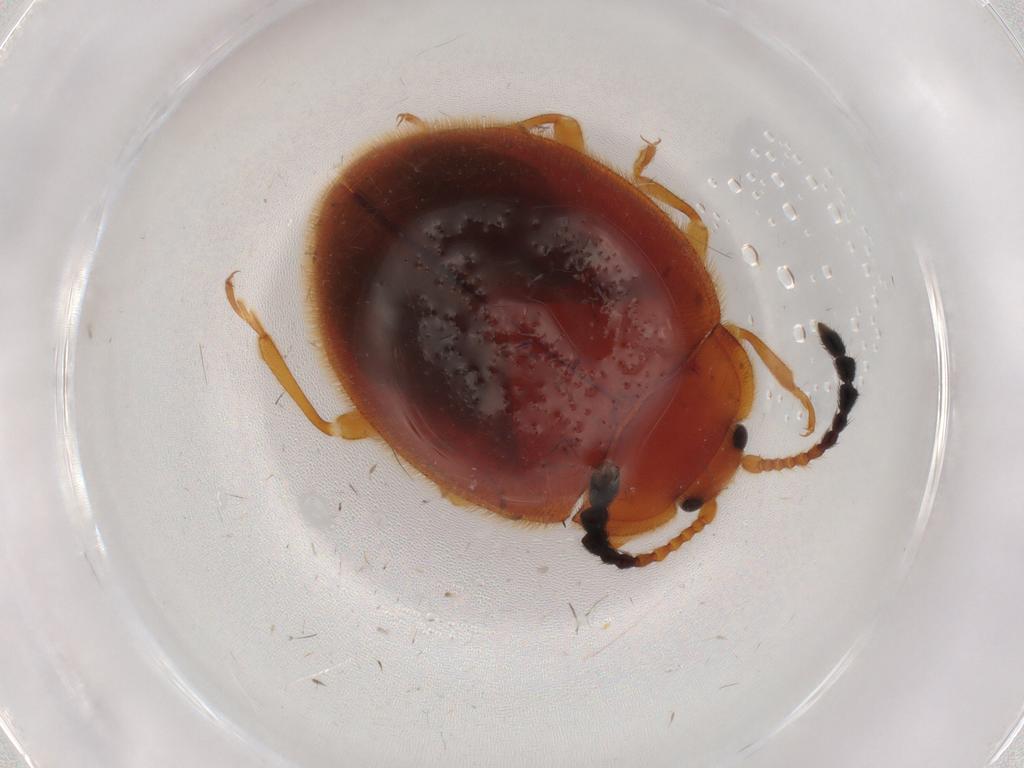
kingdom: Animalia
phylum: Arthropoda
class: Insecta
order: Coleoptera
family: Endomychidae
